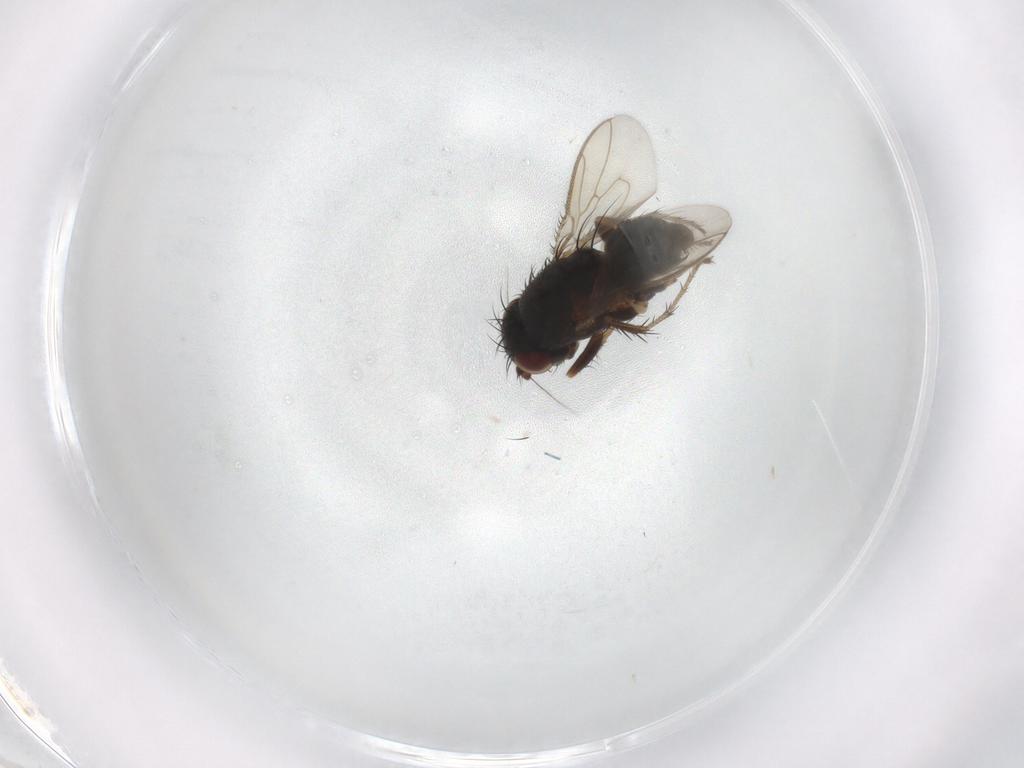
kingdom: Animalia
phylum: Arthropoda
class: Insecta
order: Diptera
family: Sphaeroceridae
